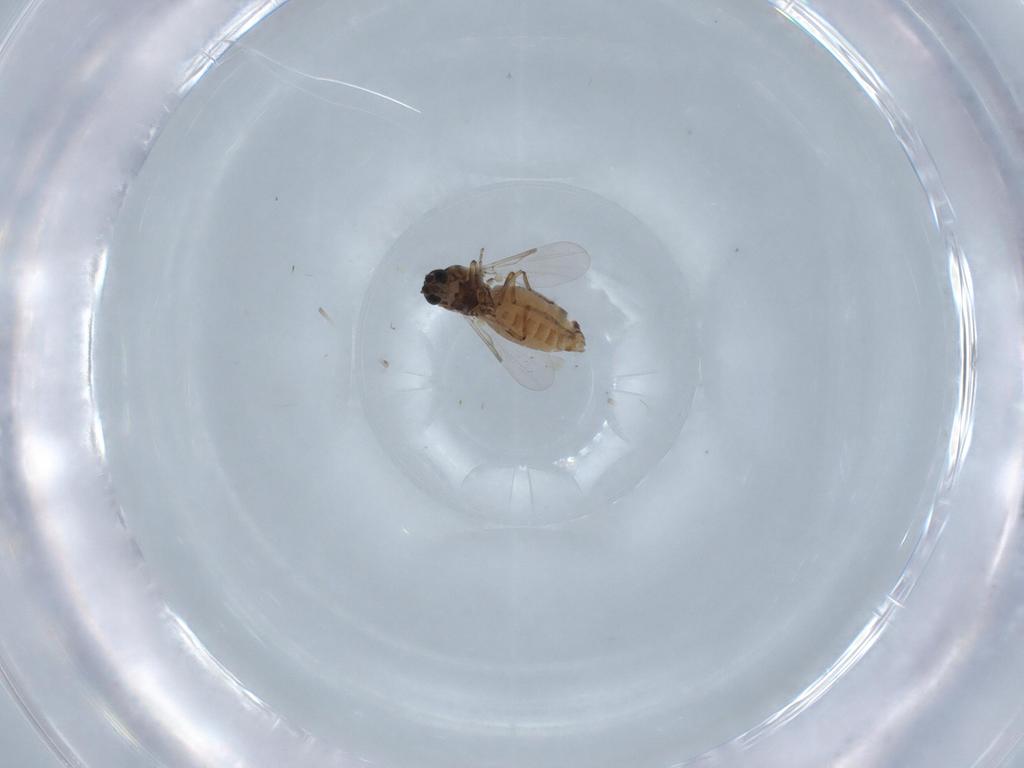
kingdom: Animalia
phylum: Arthropoda
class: Insecta
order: Diptera
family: Ceratopogonidae
